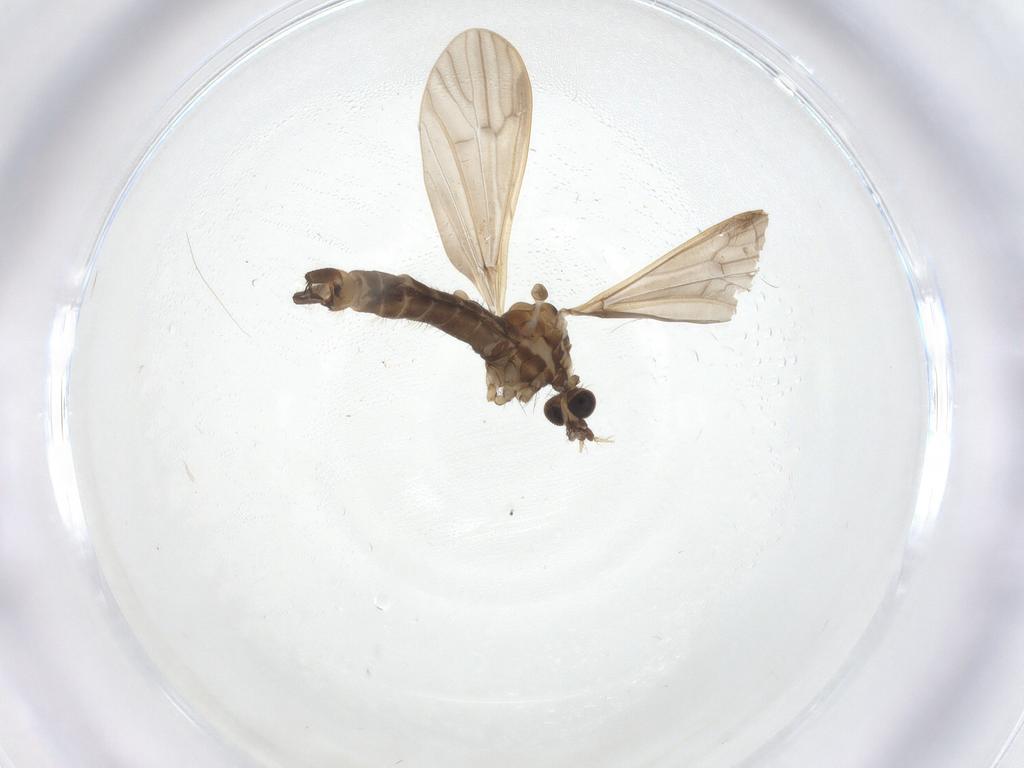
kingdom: Animalia
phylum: Arthropoda
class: Insecta
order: Diptera
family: Limoniidae
